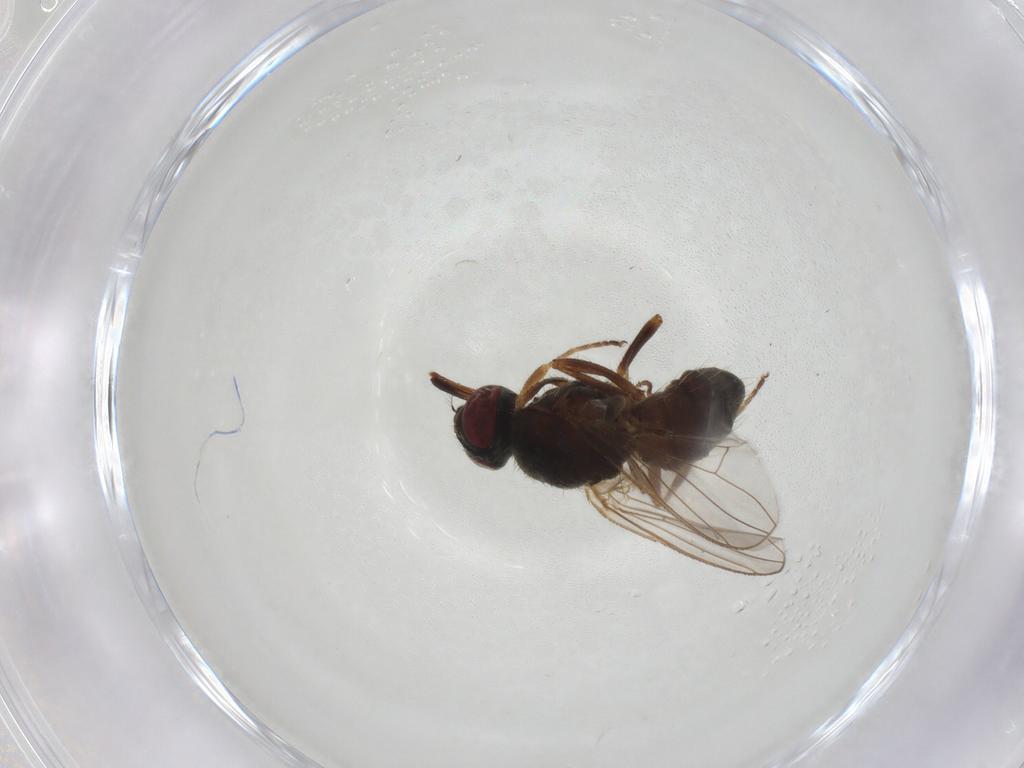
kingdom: Animalia
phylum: Arthropoda
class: Insecta
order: Diptera
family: Muscidae
